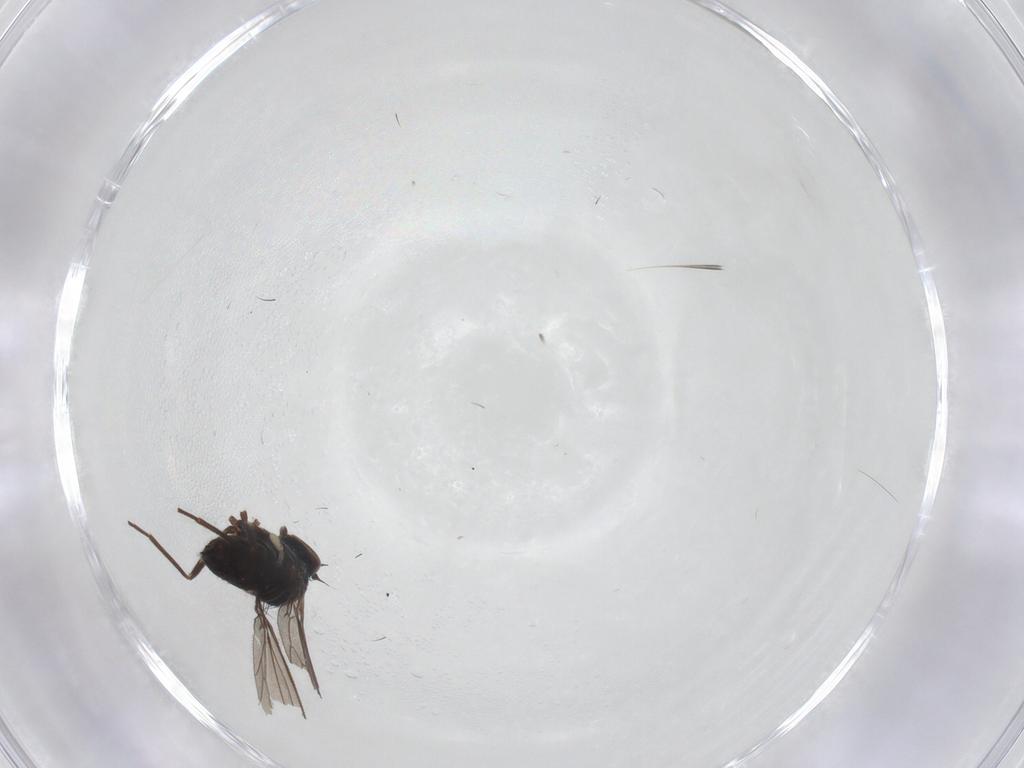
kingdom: Animalia
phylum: Arthropoda
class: Insecta
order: Diptera
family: Dolichopodidae
